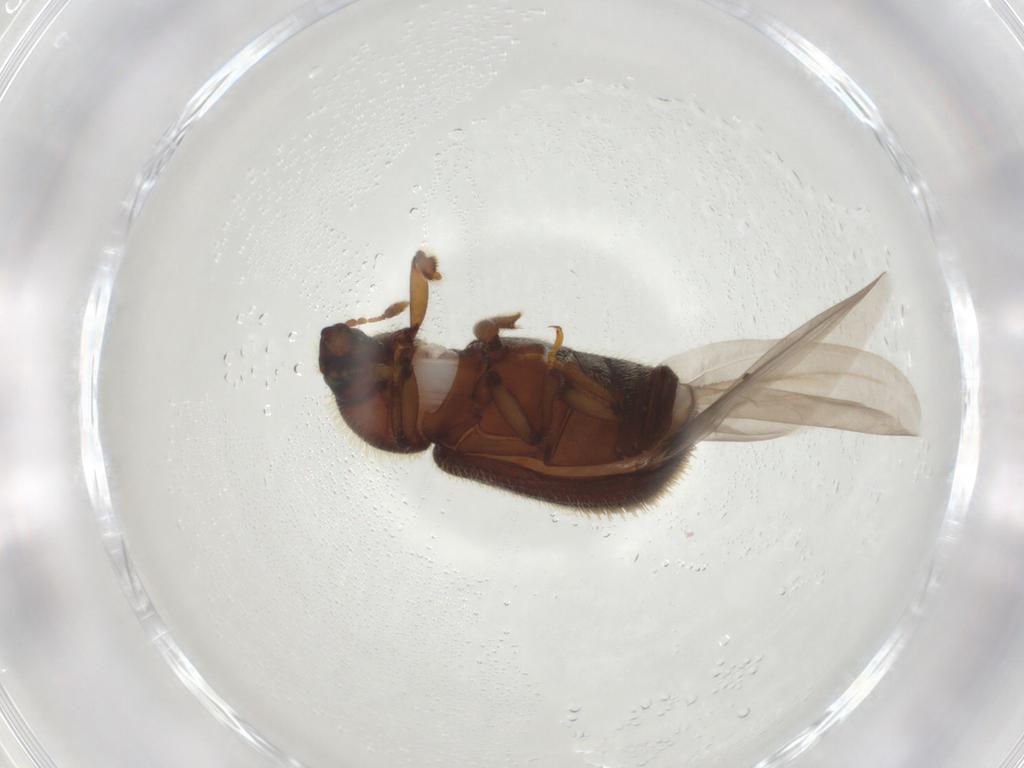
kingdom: Animalia
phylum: Arthropoda
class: Insecta
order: Coleoptera
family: Curculionidae
